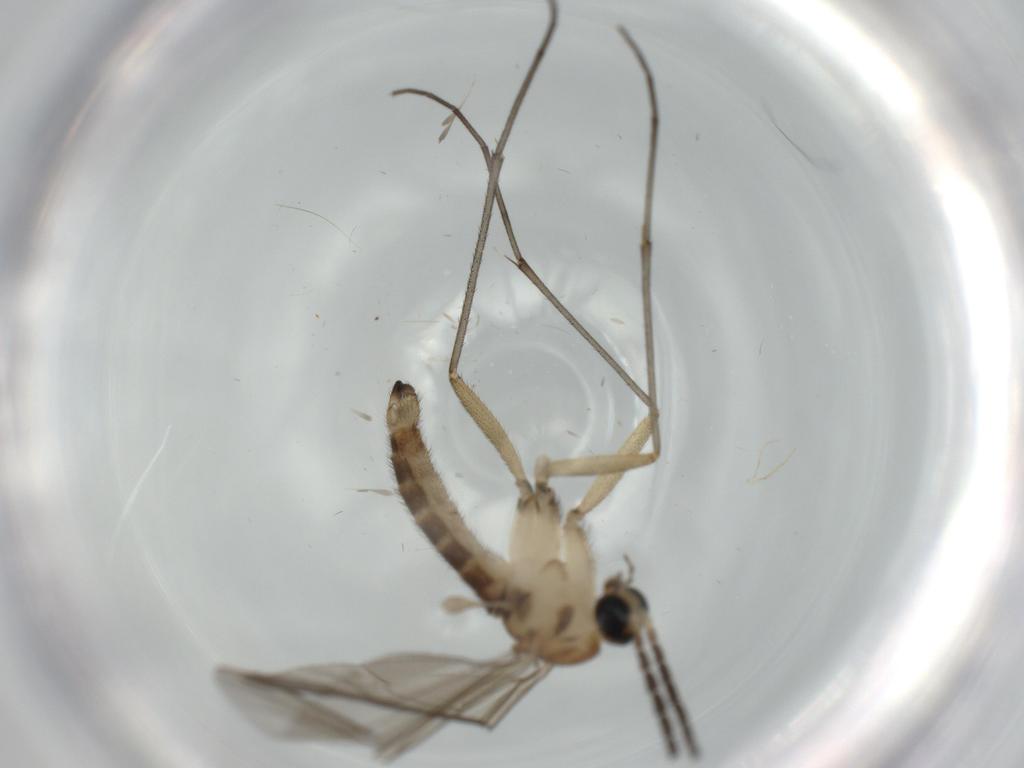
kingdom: Animalia
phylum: Arthropoda
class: Insecta
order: Diptera
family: Sciaridae
